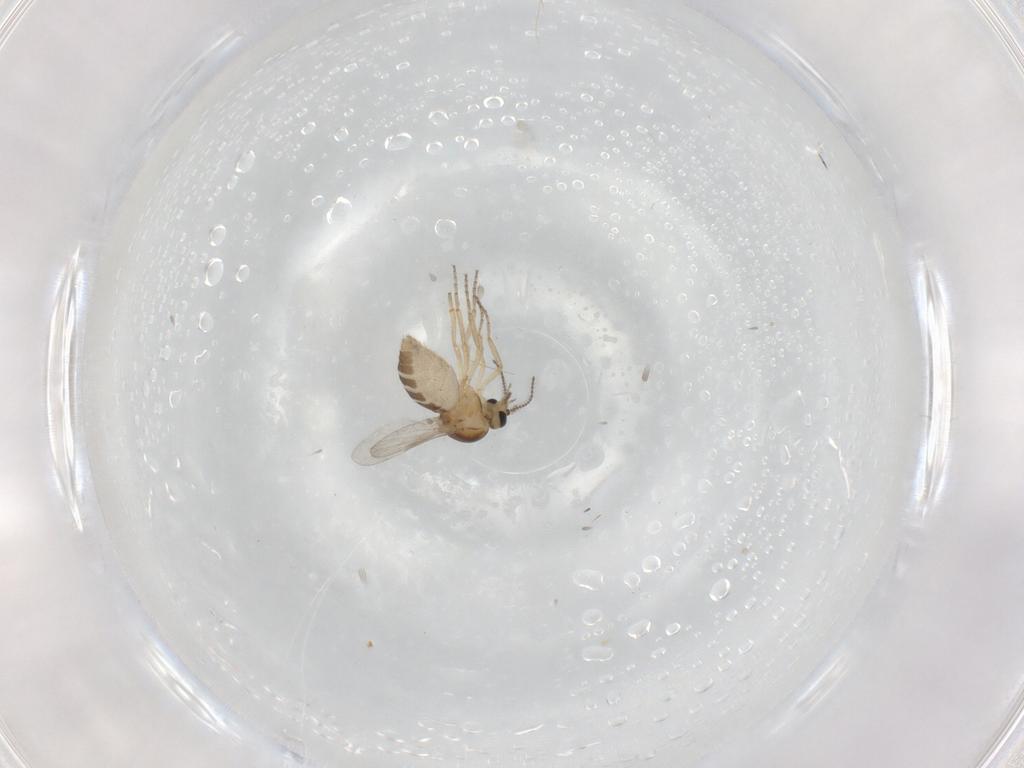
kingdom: Animalia
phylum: Arthropoda
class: Insecta
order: Diptera
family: Ceratopogonidae
